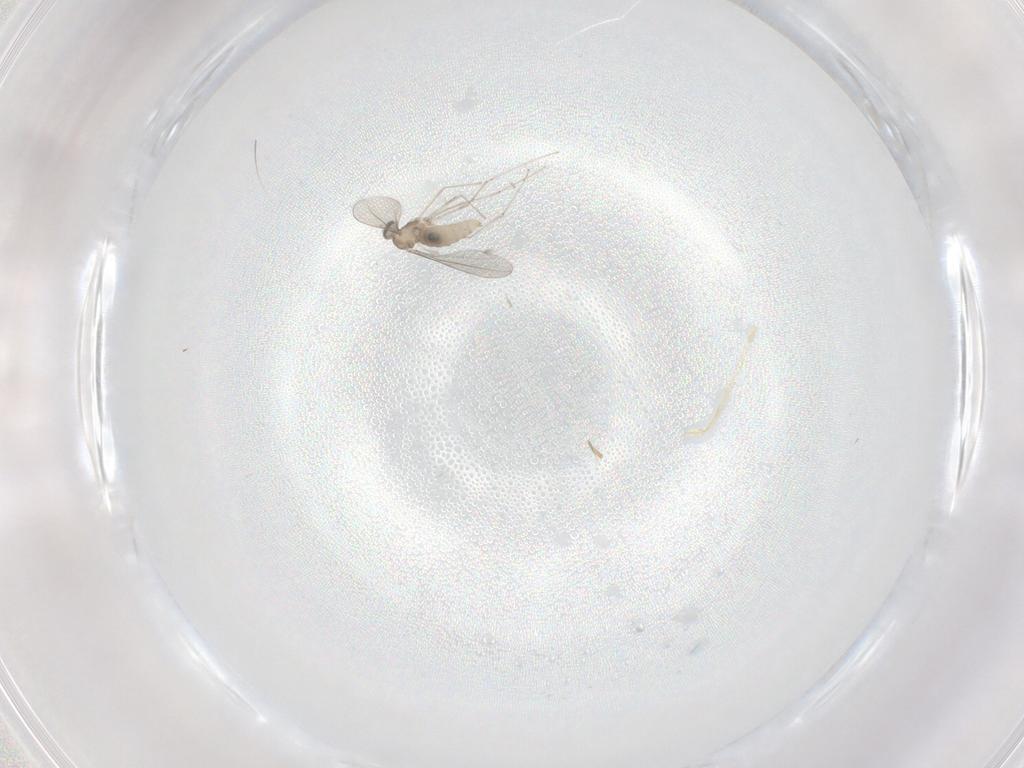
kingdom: Animalia
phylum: Arthropoda
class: Insecta
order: Diptera
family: Cecidomyiidae
